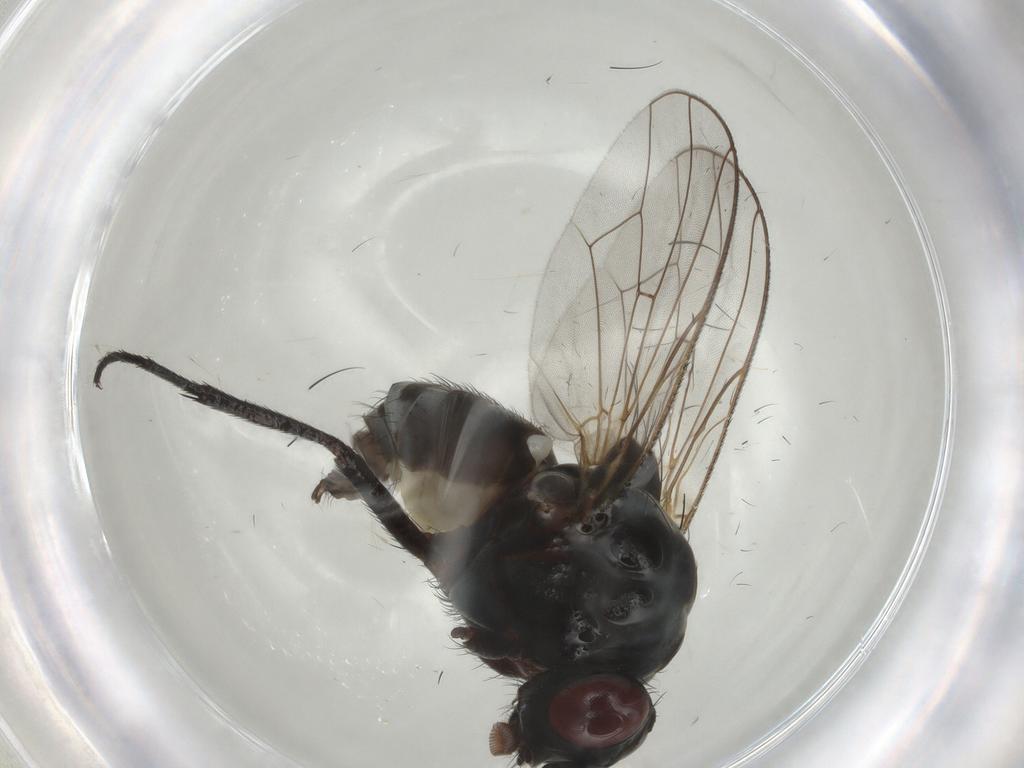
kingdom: Animalia
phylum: Arthropoda
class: Insecta
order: Diptera
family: Anthomyiidae
